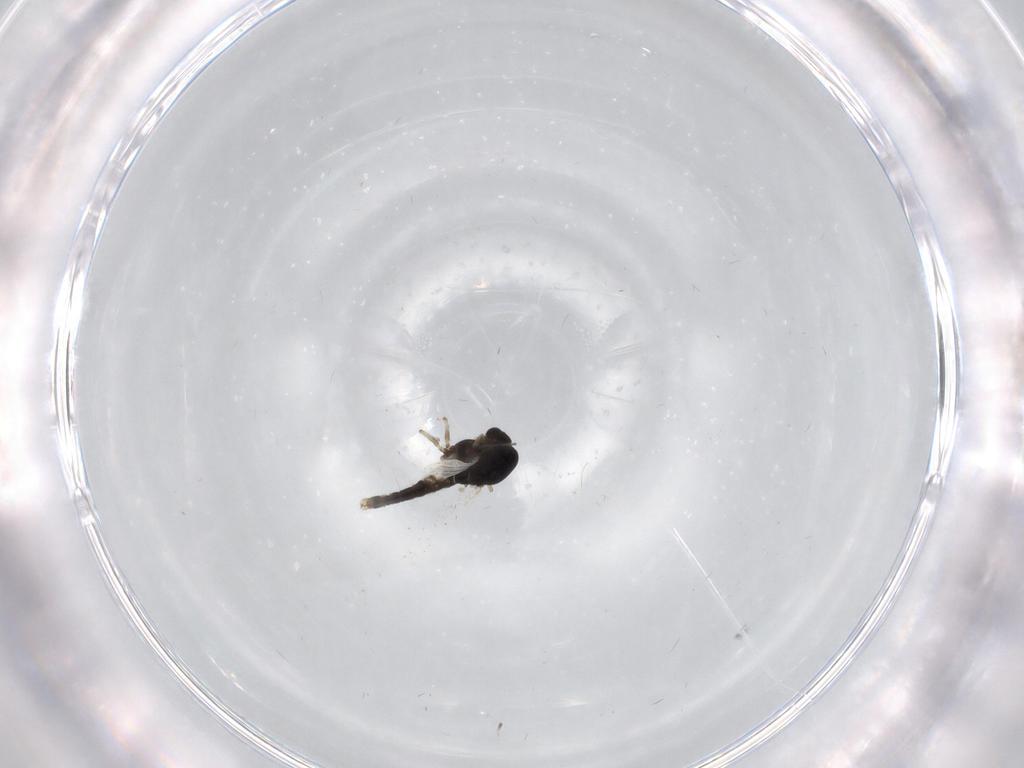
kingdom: Animalia
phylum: Arthropoda
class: Insecta
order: Diptera
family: Chironomidae
